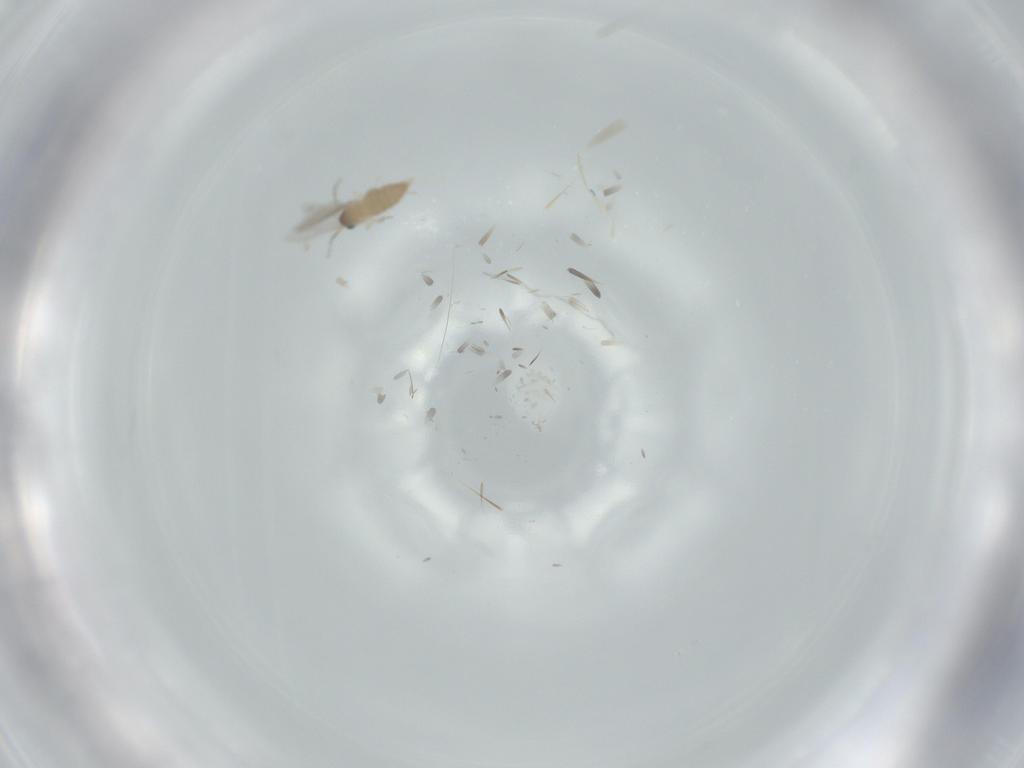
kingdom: Animalia
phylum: Arthropoda
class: Insecta
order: Diptera
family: Cecidomyiidae
